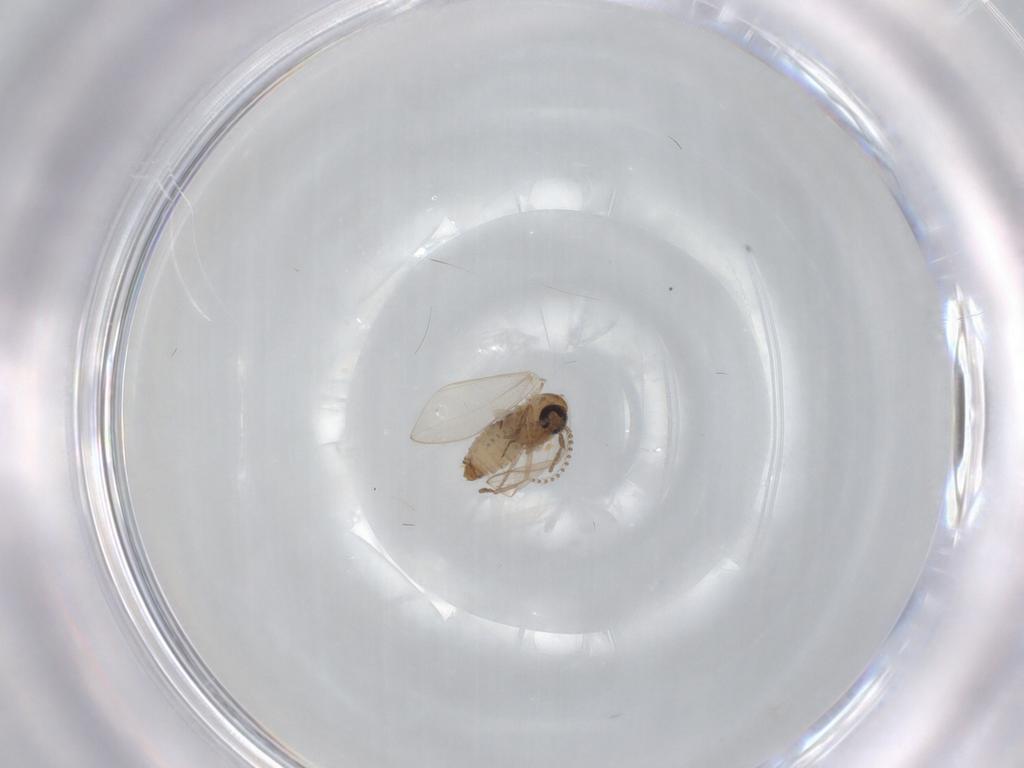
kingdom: Animalia
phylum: Arthropoda
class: Insecta
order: Diptera
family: Psychodidae
